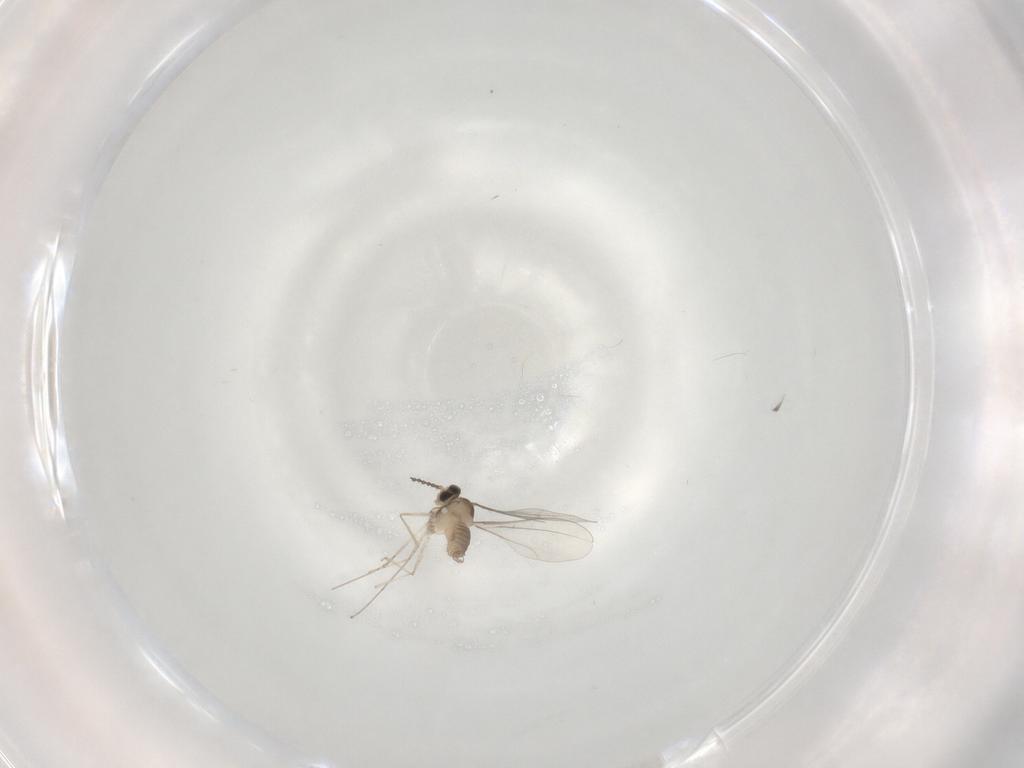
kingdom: Animalia
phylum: Arthropoda
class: Insecta
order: Diptera
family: Cecidomyiidae
